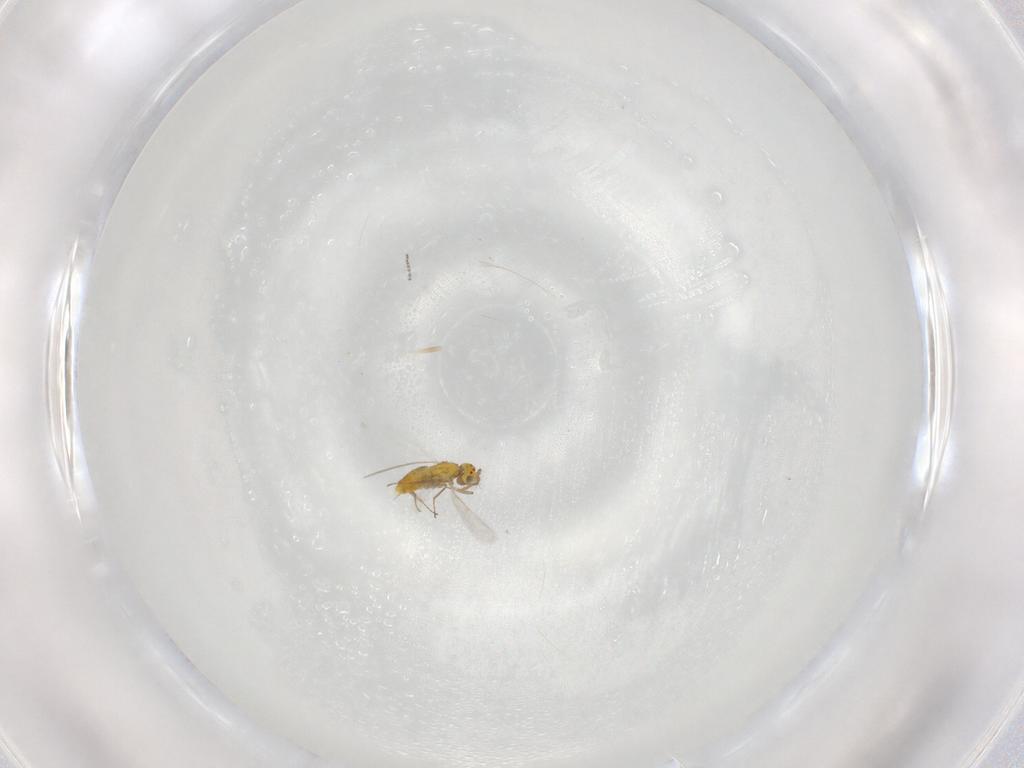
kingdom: Animalia
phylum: Arthropoda
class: Insecta
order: Hymenoptera
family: Aphelinidae
